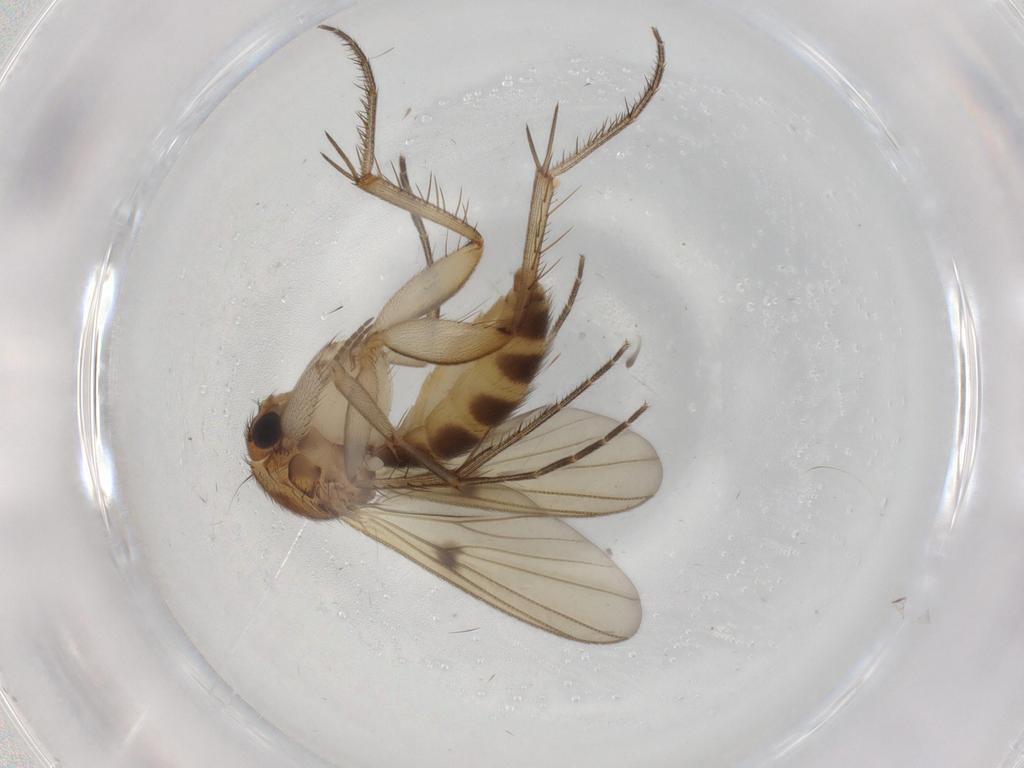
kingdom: Animalia
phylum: Arthropoda
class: Insecta
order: Diptera
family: Cecidomyiidae
